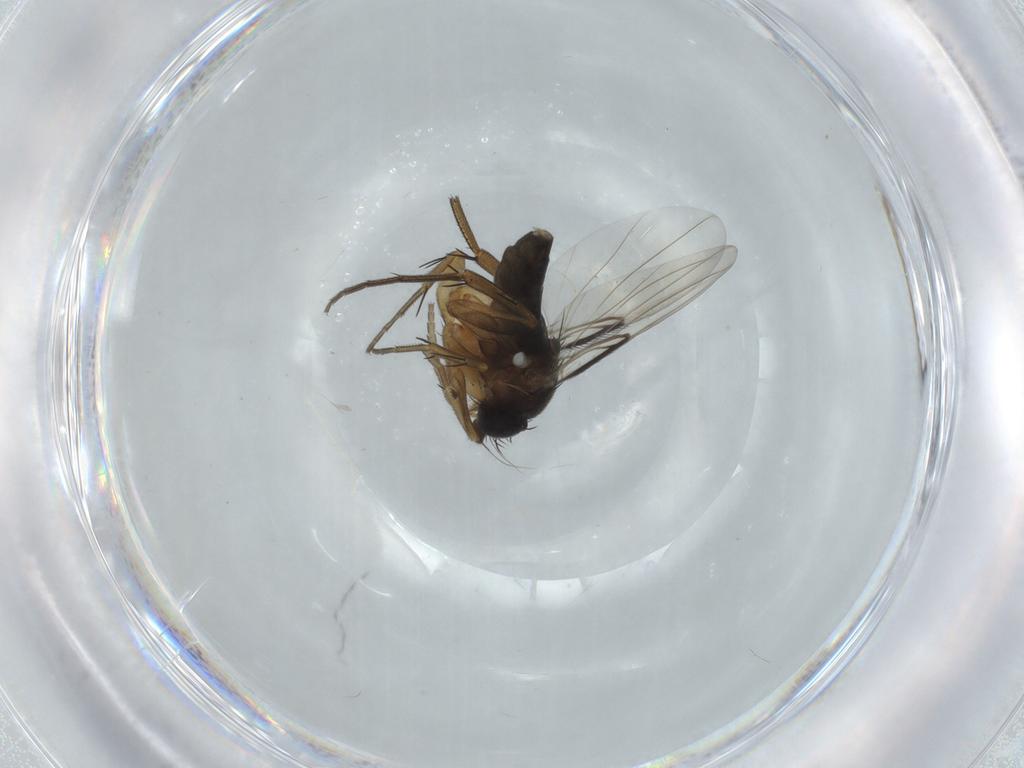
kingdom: Animalia
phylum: Arthropoda
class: Insecta
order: Diptera
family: Phoridae
